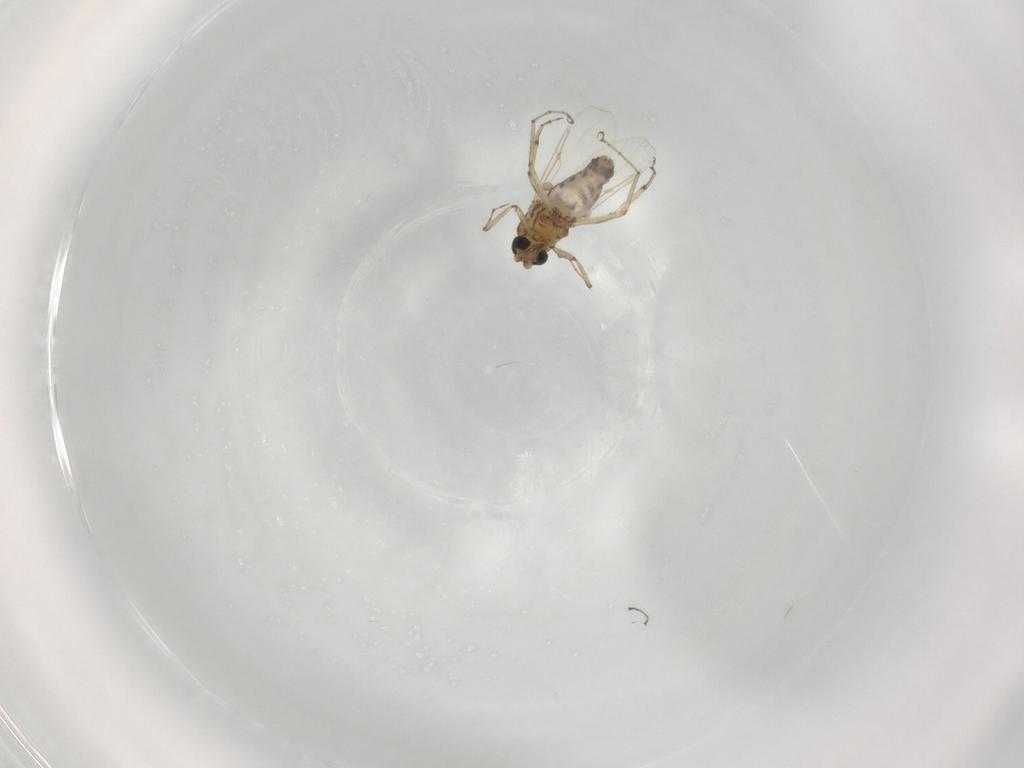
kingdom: Animalia
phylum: Arthropoda
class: Insecta
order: Diptera
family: Ceratopogonidae
